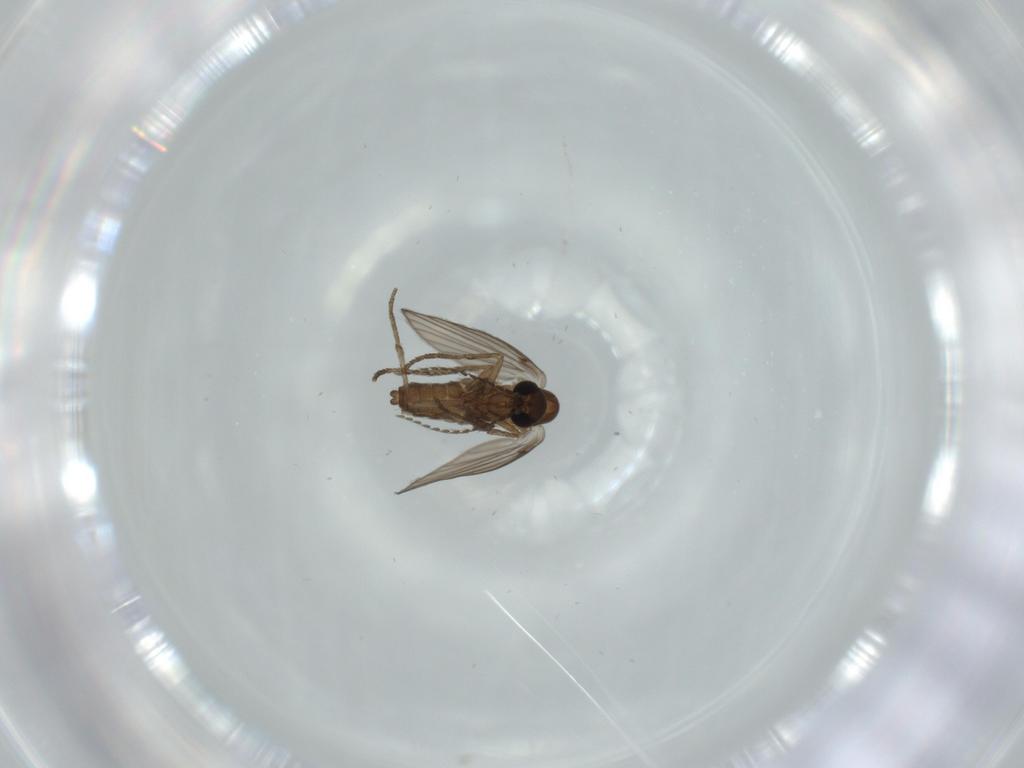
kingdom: Animalia
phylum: Arthropoda
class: Insecta
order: Diptera
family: Psychodidae
